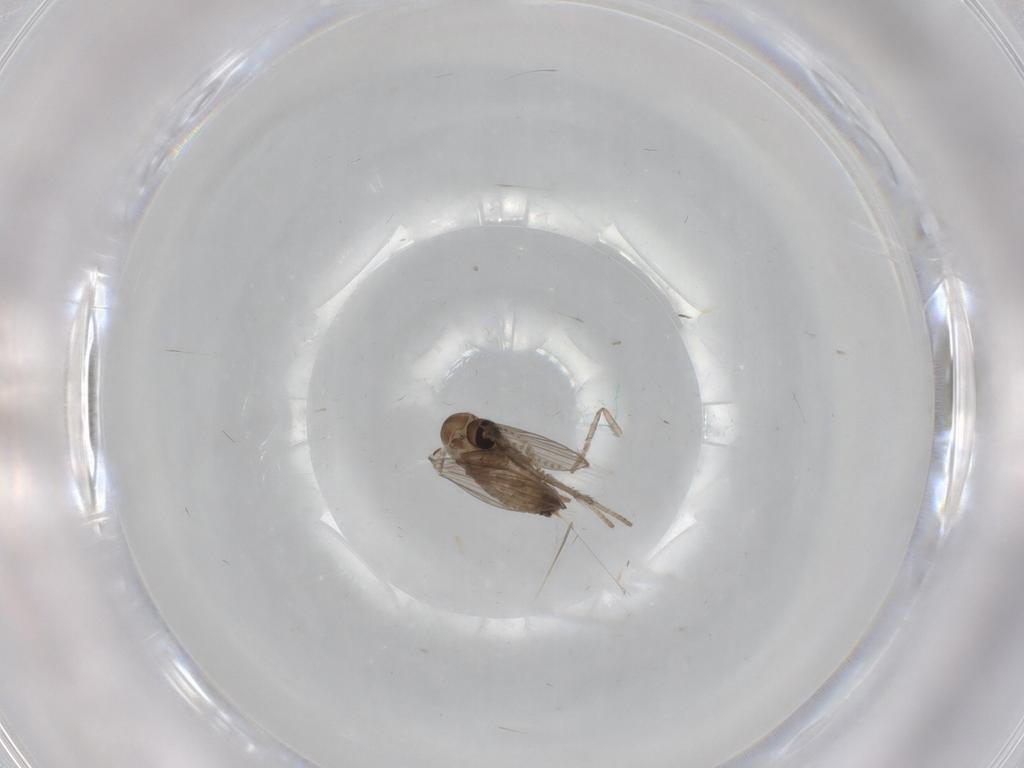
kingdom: Animalia
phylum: Arthropoda
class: Insecta
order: Diptera
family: Psychodidae
